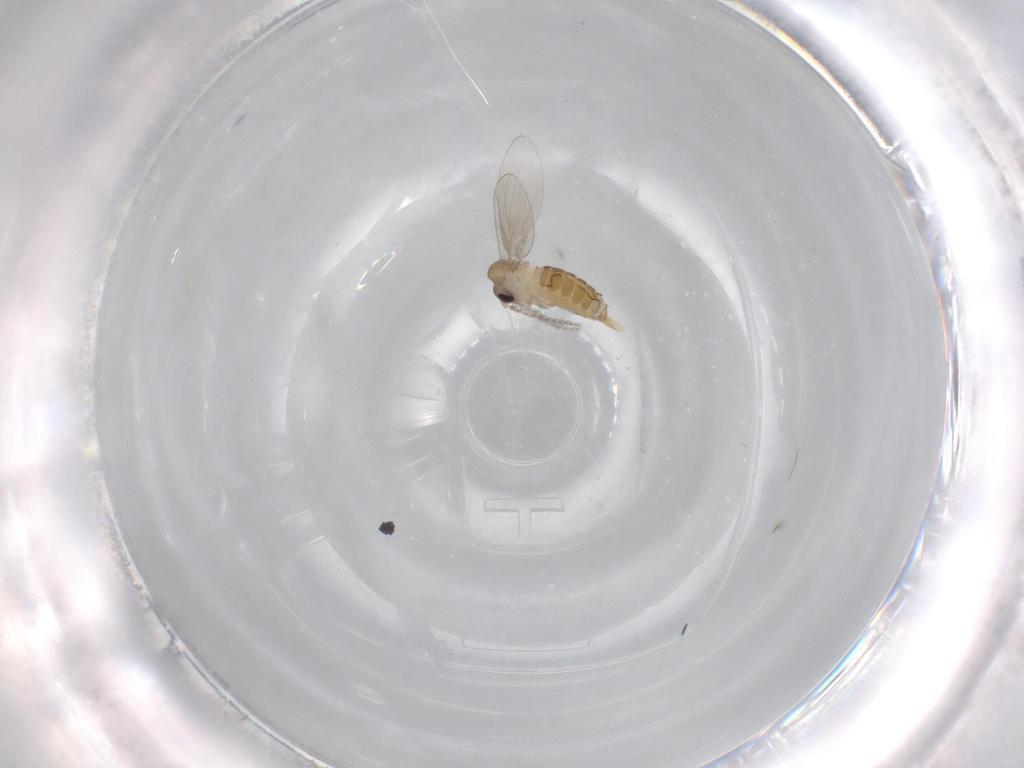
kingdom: Animalia
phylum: Arthropoda
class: Insecta
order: Diptera
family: Psychodidae
